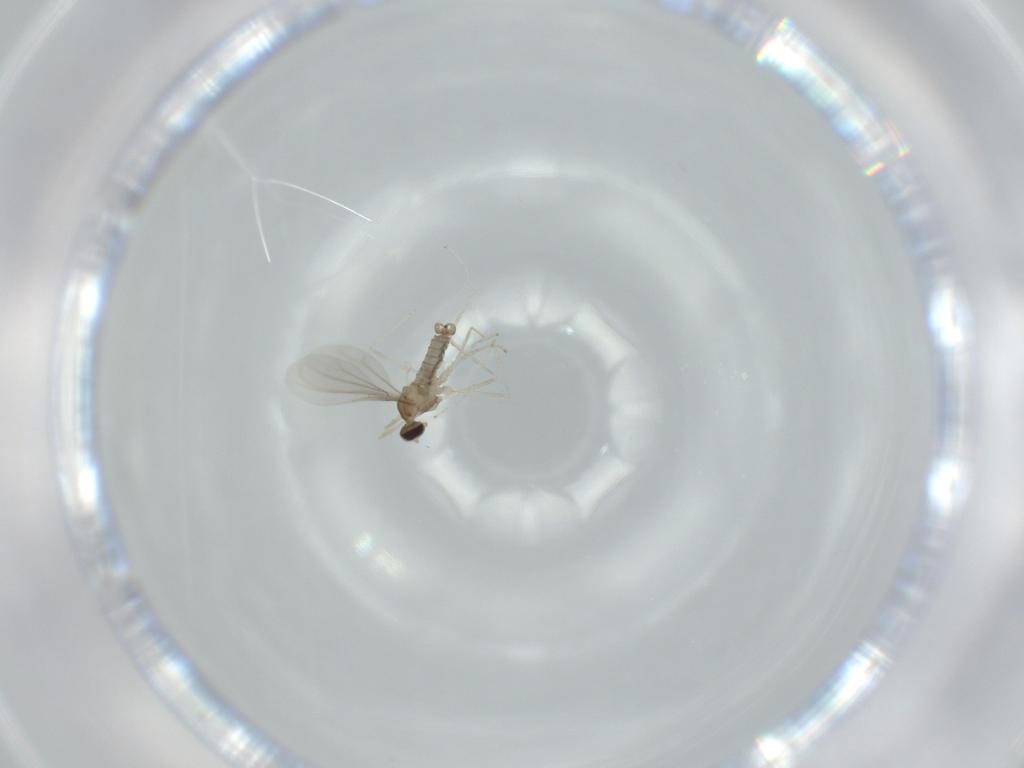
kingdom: Animalia
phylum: Arthropoda
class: Insecta
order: Diptera
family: Cecidomyiidae
